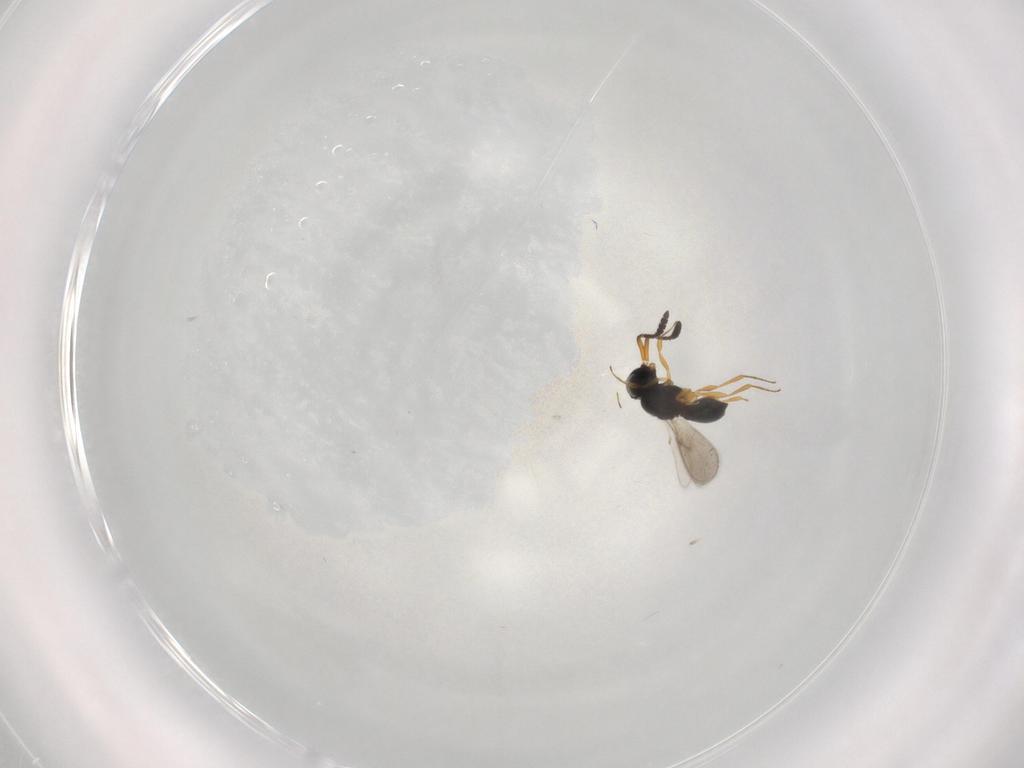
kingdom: Animalia
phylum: Arthropoda
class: Insecta
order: Hymenoptera
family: Scelionidae
